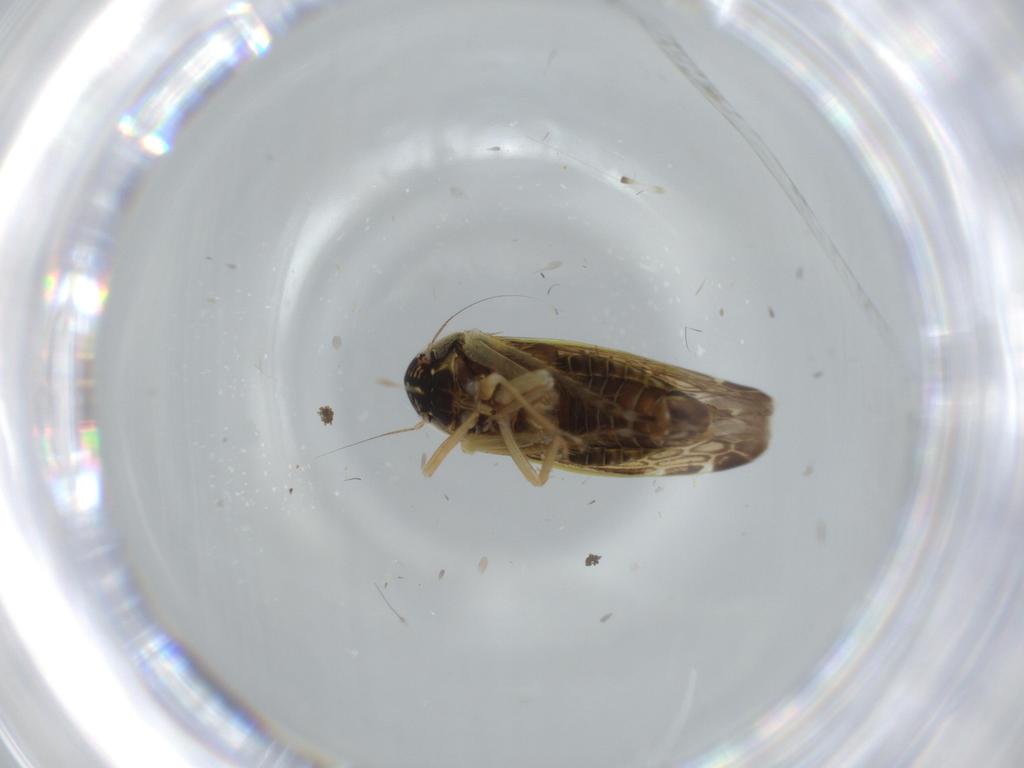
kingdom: Animalia
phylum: Arthropoda
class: Insecta
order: Hemiptera
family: Cicadellidae
